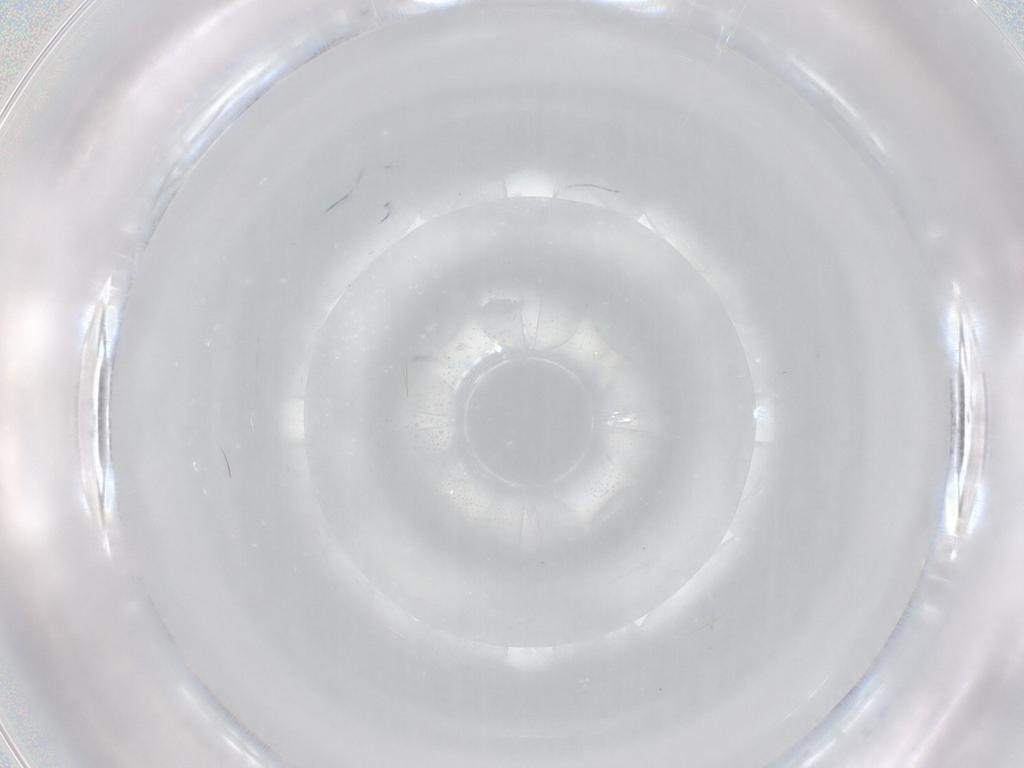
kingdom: Animalia
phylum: Arthropoda
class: Insecta
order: Diptera
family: Cecidomyiidae
